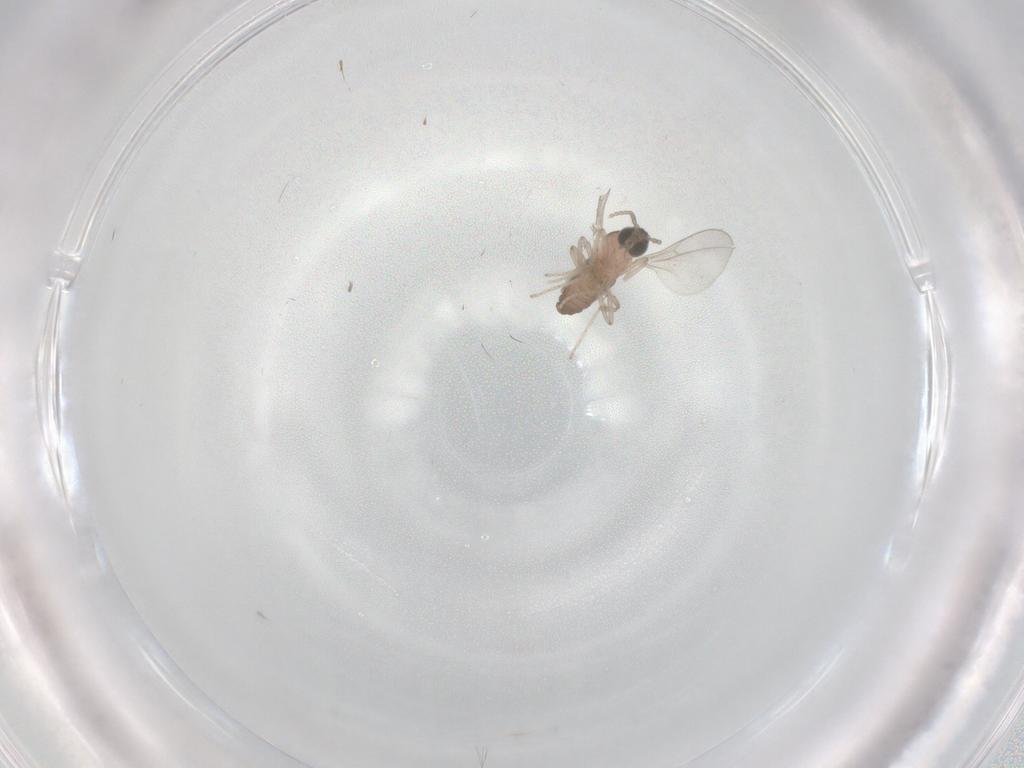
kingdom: Animalia
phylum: Arthropoda
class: Insecta
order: Diptera
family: Cecidomyiidae
